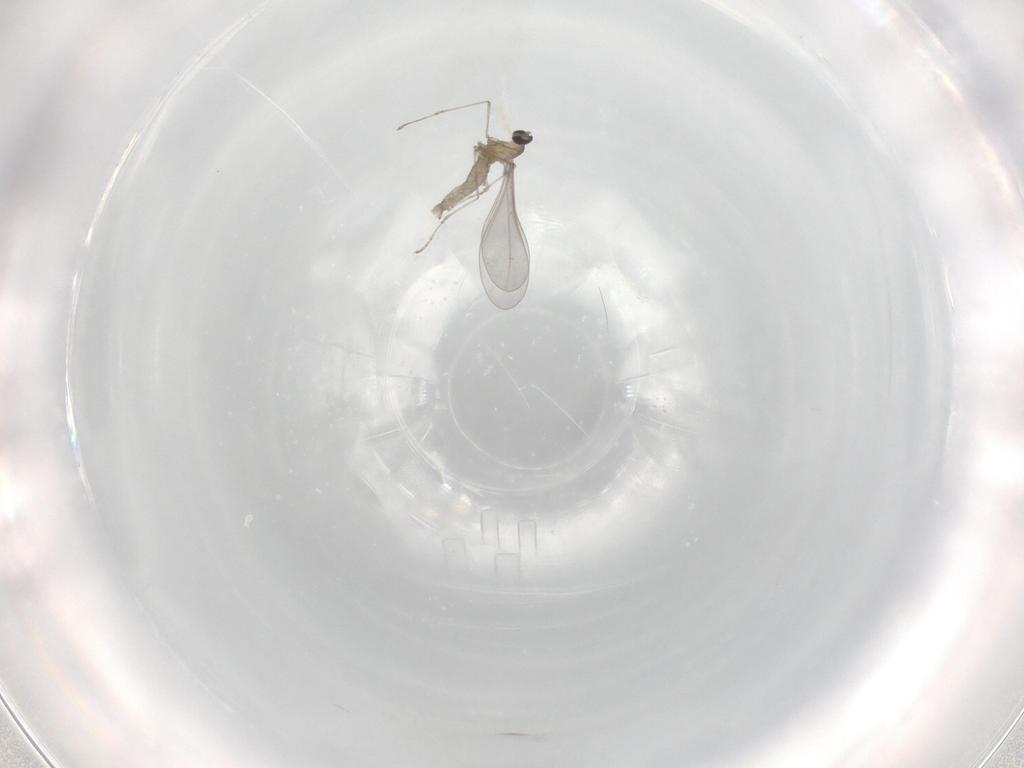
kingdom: Animalia
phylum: Arthropoda
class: Insecta
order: Diptera
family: Cecidomyiidae
